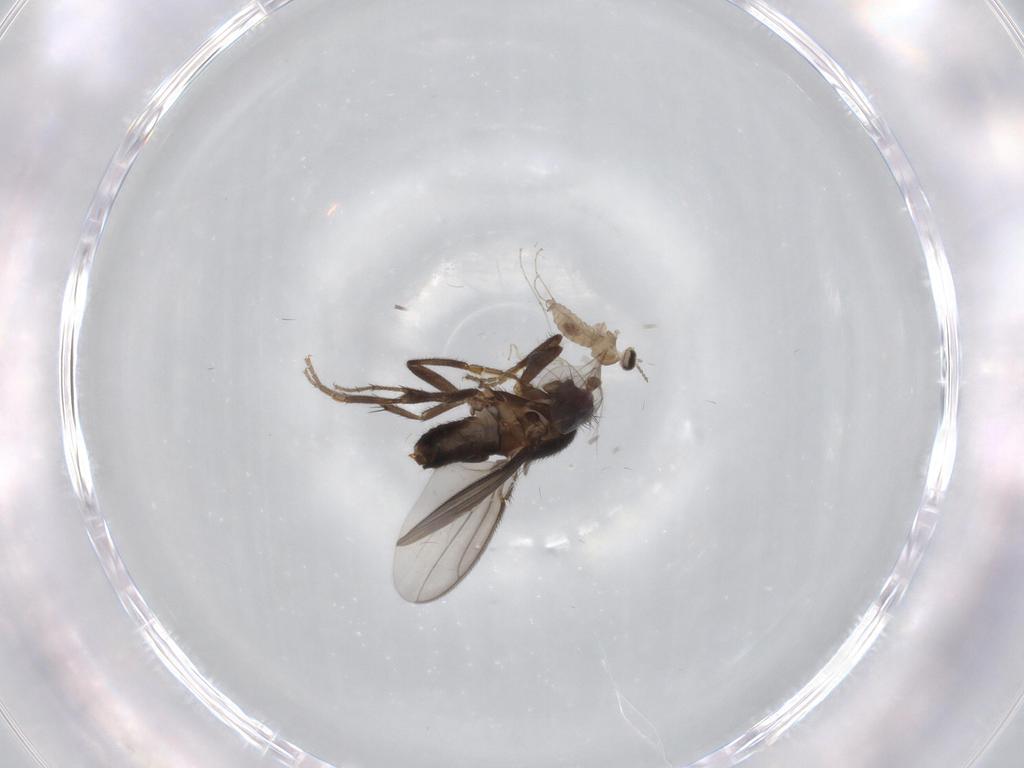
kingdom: Animalia
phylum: Arthropoda
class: Insecta
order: Diptera
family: Sphaeroceridae
